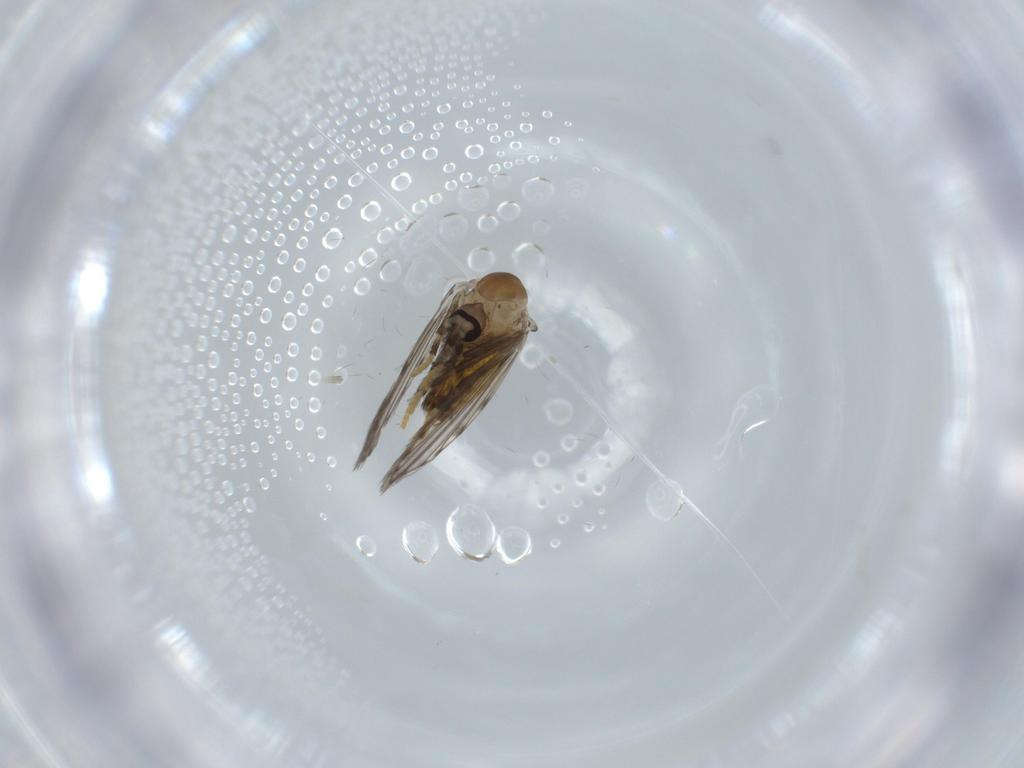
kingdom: Animalia
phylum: Arthropoda
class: Insecta
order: Diptera
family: Psychodidae
